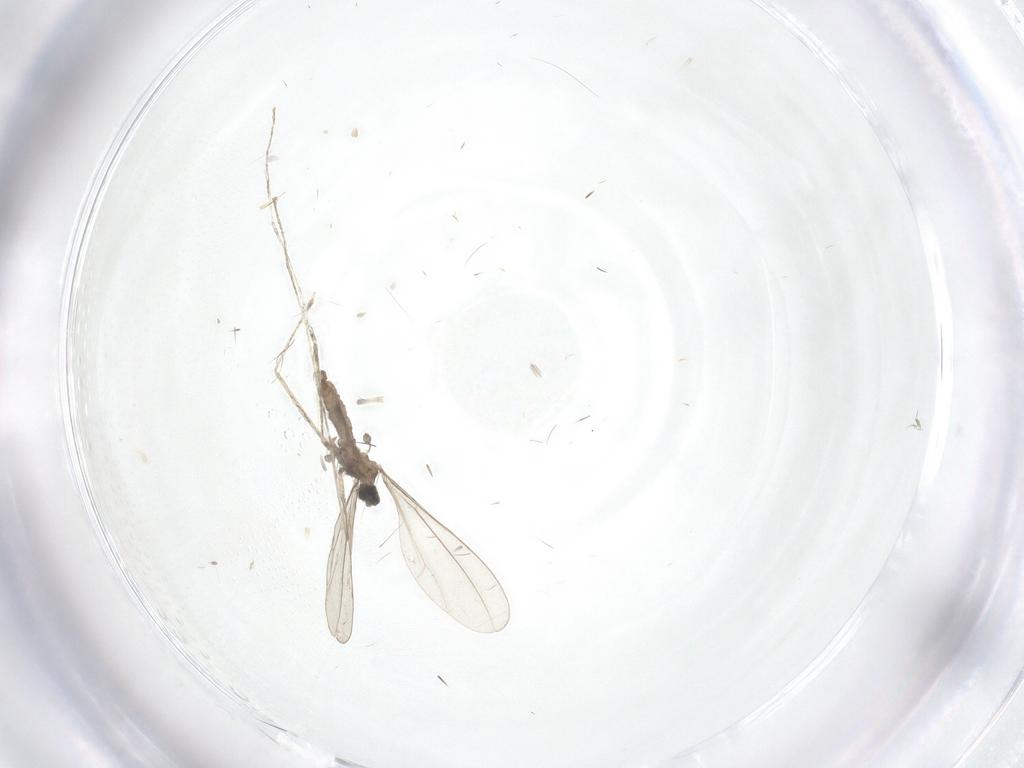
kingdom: Animalia
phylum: Arthropoda
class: Insecta
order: Diptera
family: Cecidomyiidae
